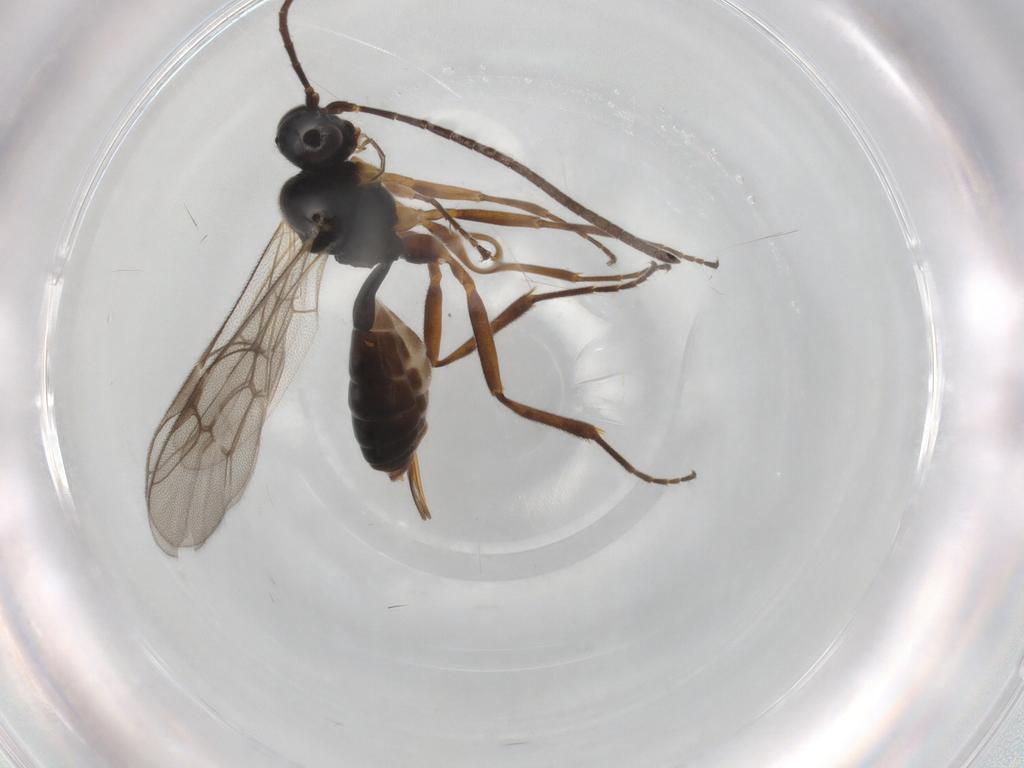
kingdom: Animalia
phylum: Arthropoda
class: Insecta
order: Hymenoptera
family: Ichneumonidae
